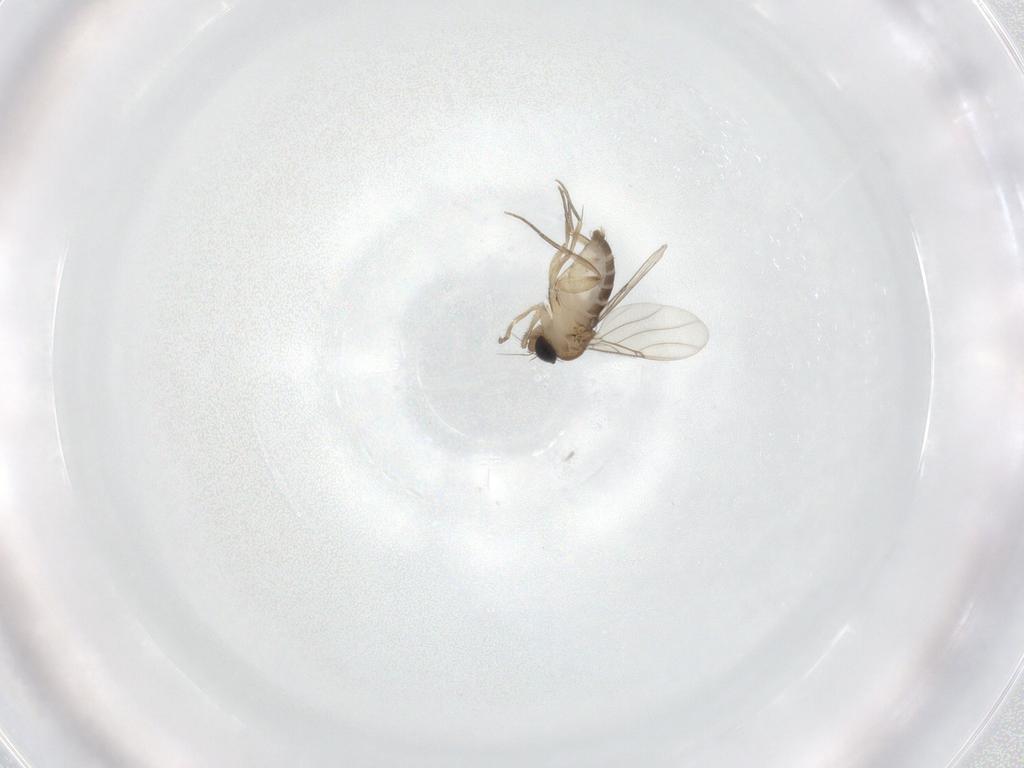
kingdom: Animalia
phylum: Arthropoda
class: Insecta
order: Diptera
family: Phoridae
